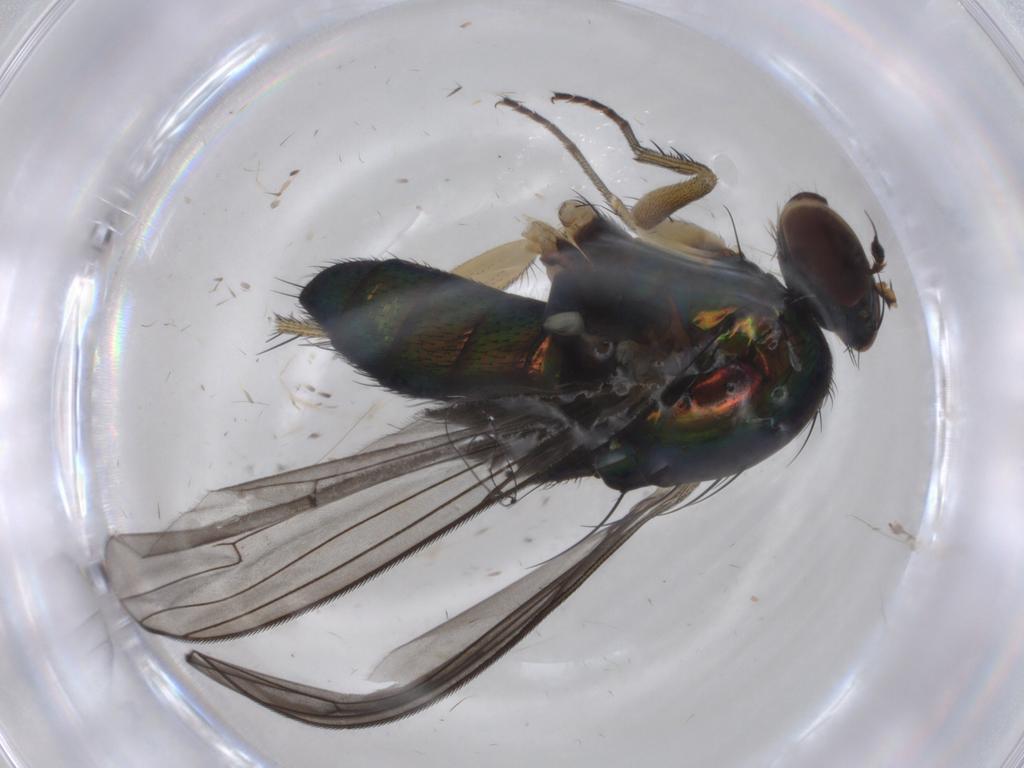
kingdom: Animalia
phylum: Arthropoda
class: Insecta
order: Diptera
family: Dolichopodidae
